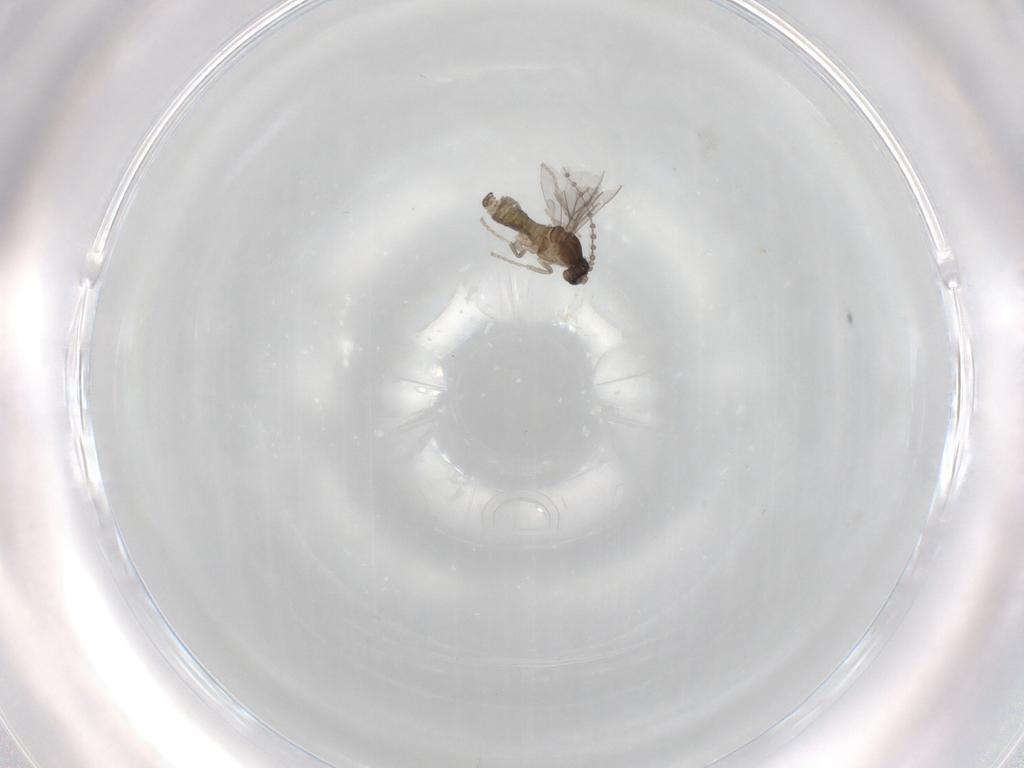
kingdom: Animalia
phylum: Arthropoda
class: Insecta
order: Diptera
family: Cecidomyiidae
